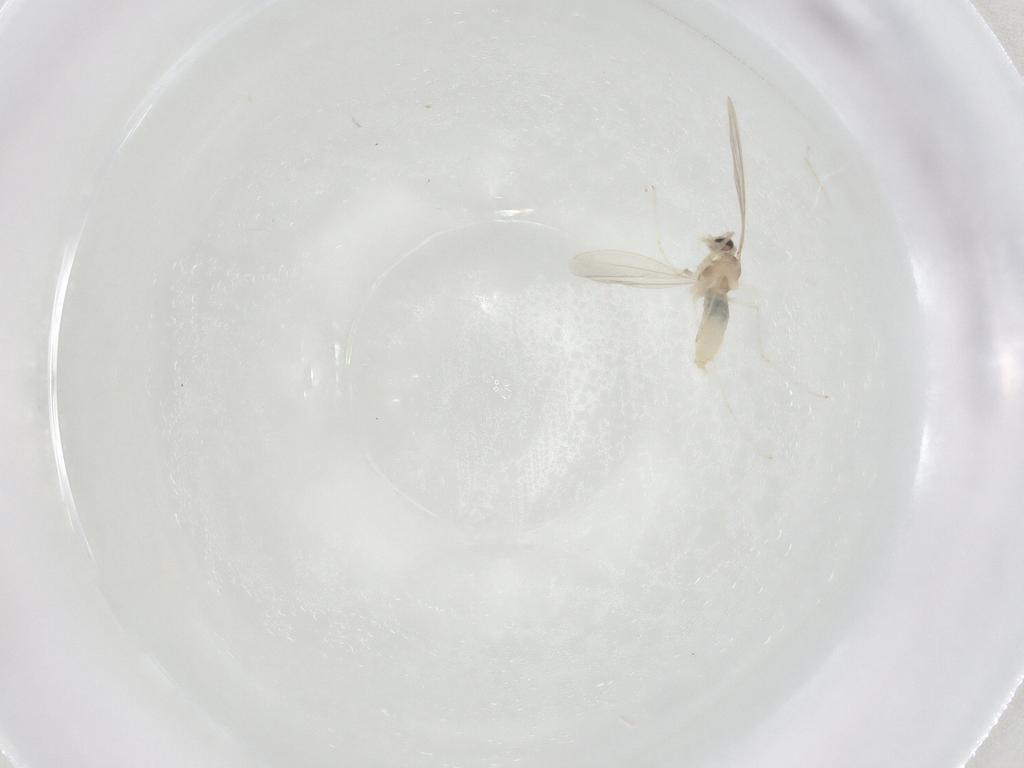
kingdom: Animalia
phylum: Arthropoda
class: Insecta
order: Diptera
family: Cecidomyiidae
